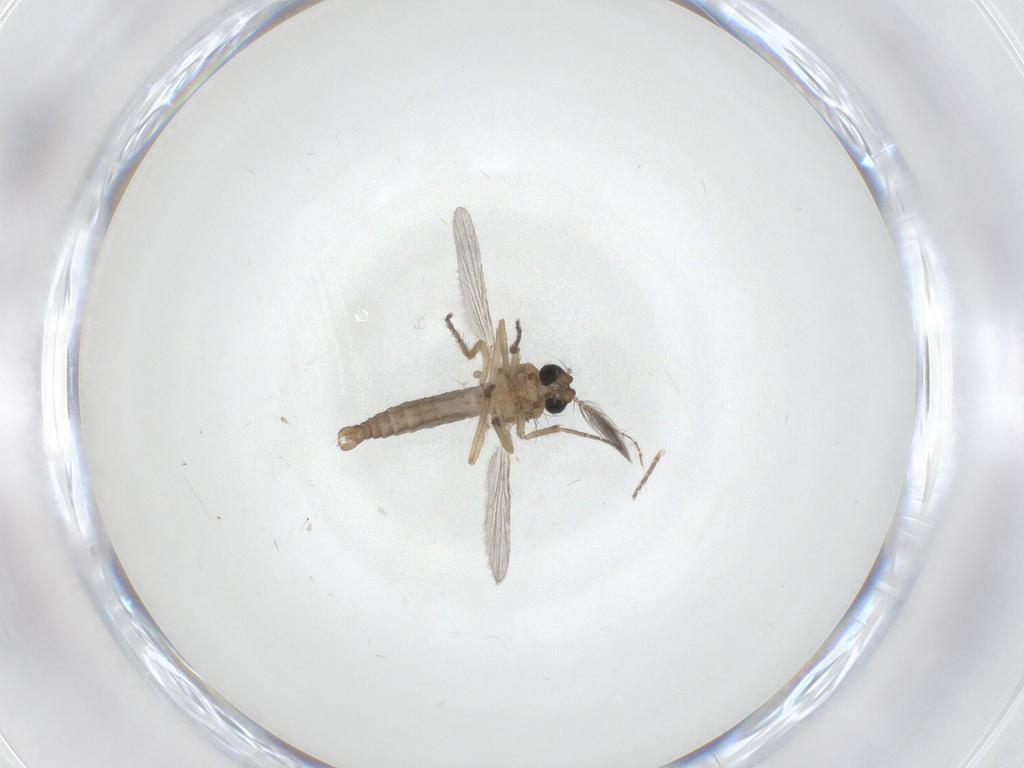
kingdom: Animalia
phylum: Arthropoda
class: Insecta
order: Diptera
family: Ceratopogonidae
